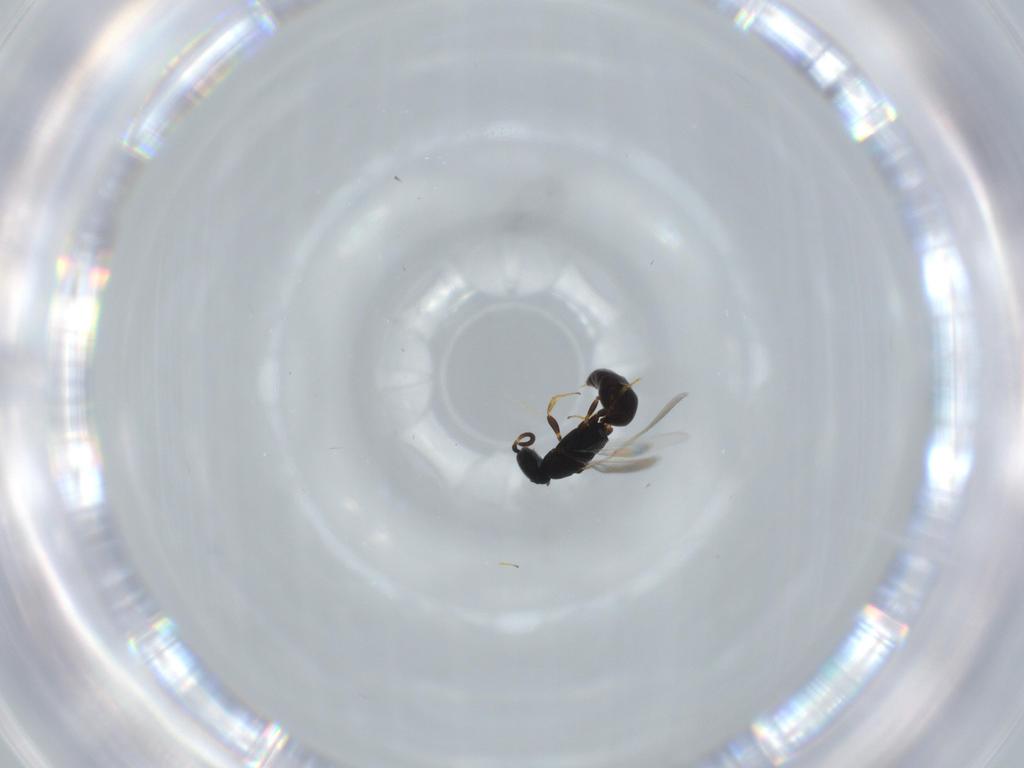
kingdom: Animalia
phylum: Arthropoda
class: Insecta
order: Hymenoptera
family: Bethylidae
